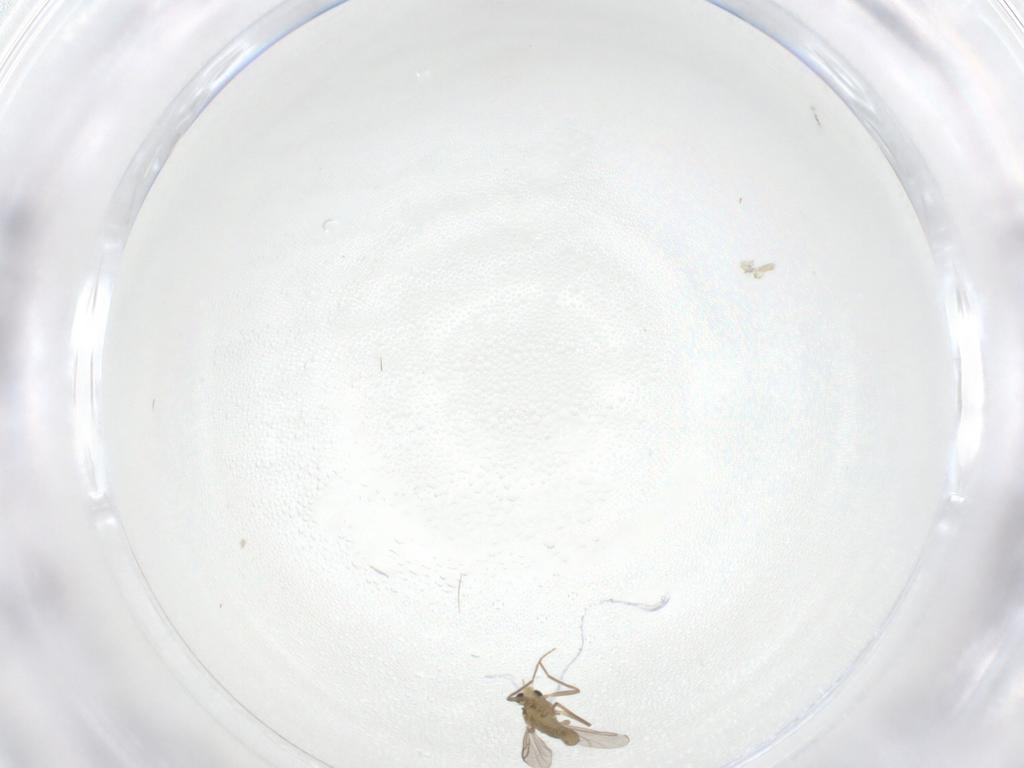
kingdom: Animalia
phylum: Arthropoda
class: Insecta
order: Diptera
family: Chironomidae
